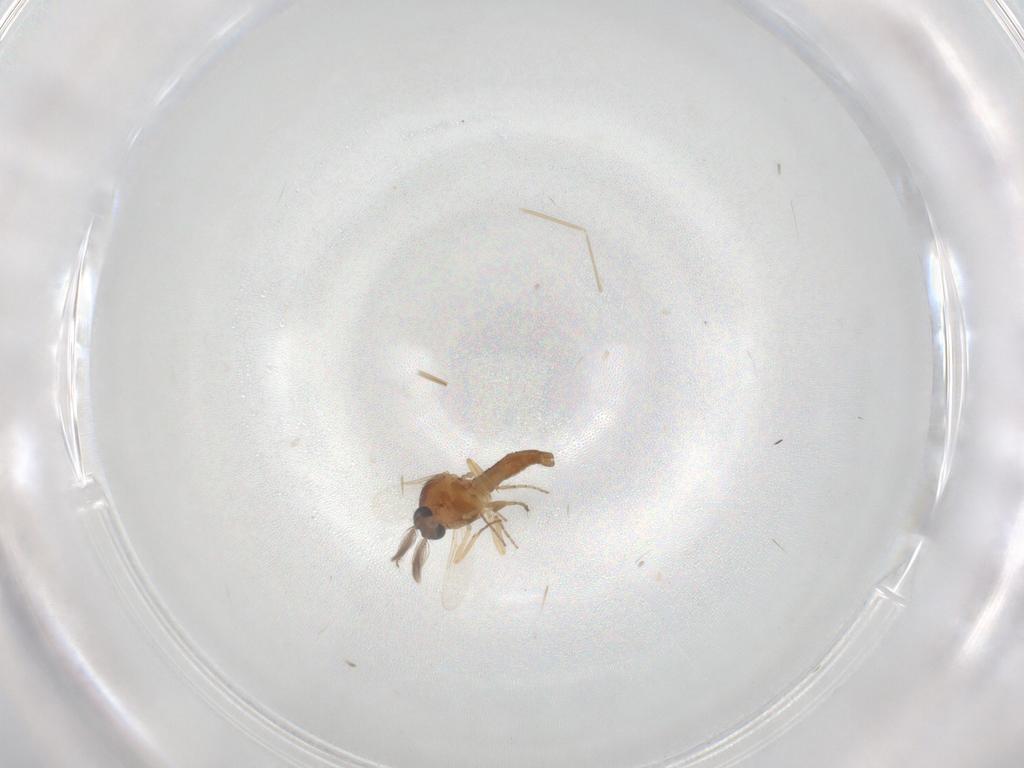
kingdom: Animalia
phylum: Arthropoda
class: Insecta
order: Diptera
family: Ceratopogonidae
